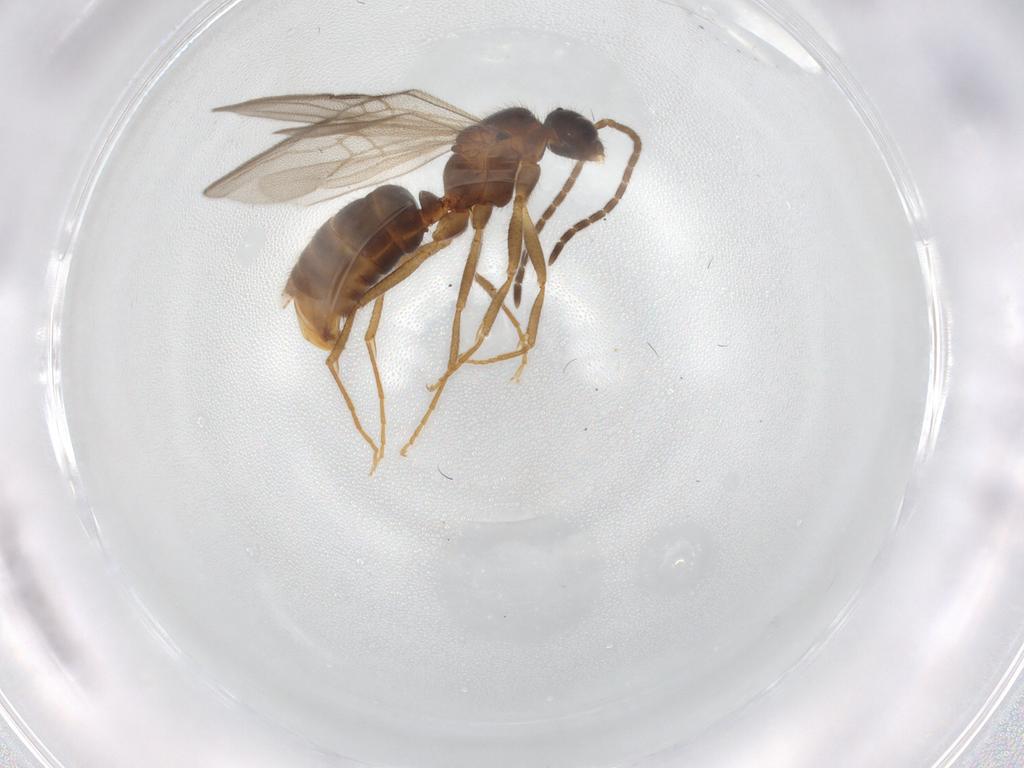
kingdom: Animalia
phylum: Arthropoda
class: Insecta
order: Hymenoptera
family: Formicidae
